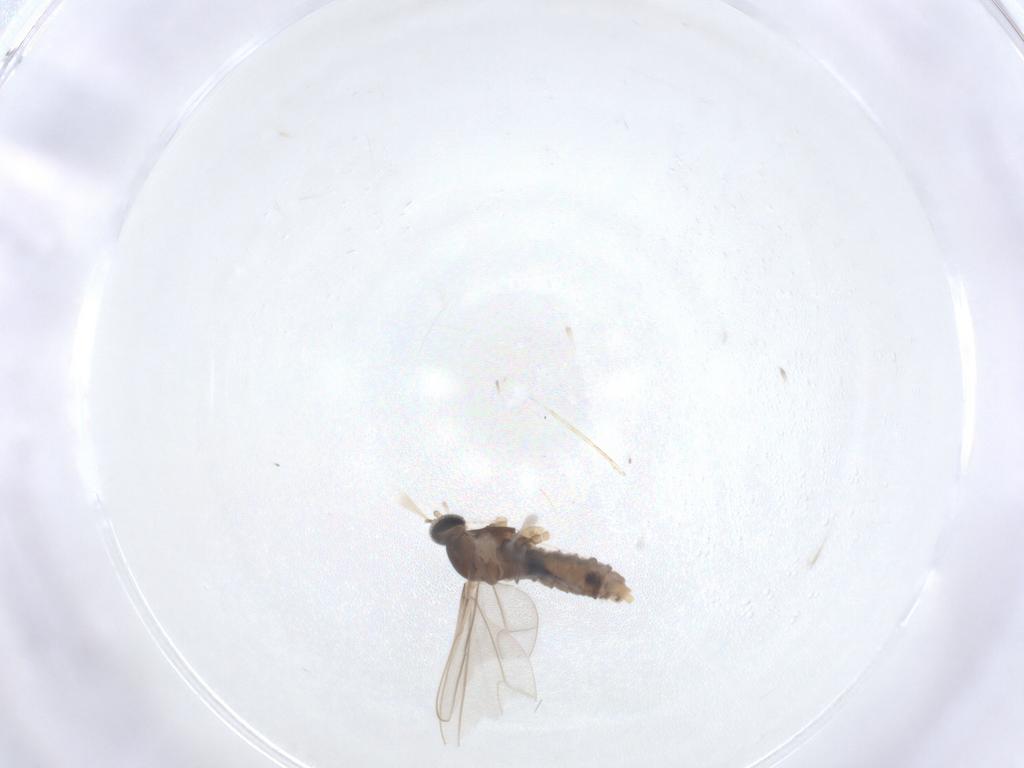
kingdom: Animalia
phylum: Arthropoda
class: Insecta
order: Diptera
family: Cecidomyiidae
